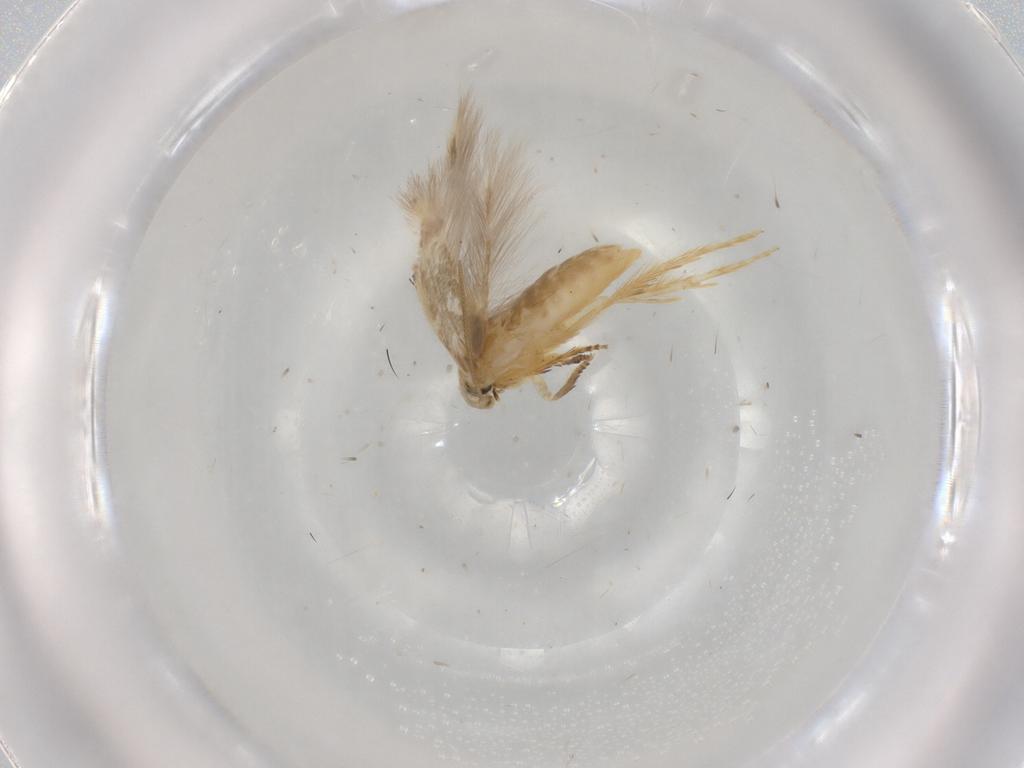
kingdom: Animalia
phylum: Arthropoda
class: Insecta
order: Lepidoptera
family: Opostegidae
